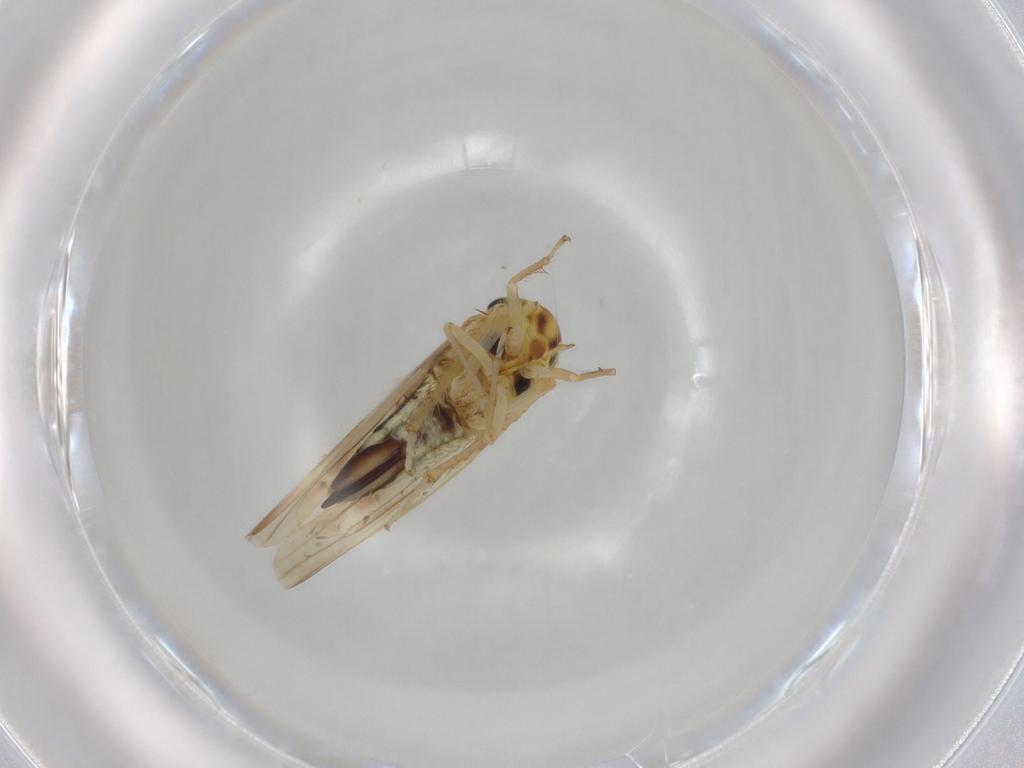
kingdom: Animalia
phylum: Arthropoda
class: Insecta
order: Hemiptera
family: Cicadellidae
